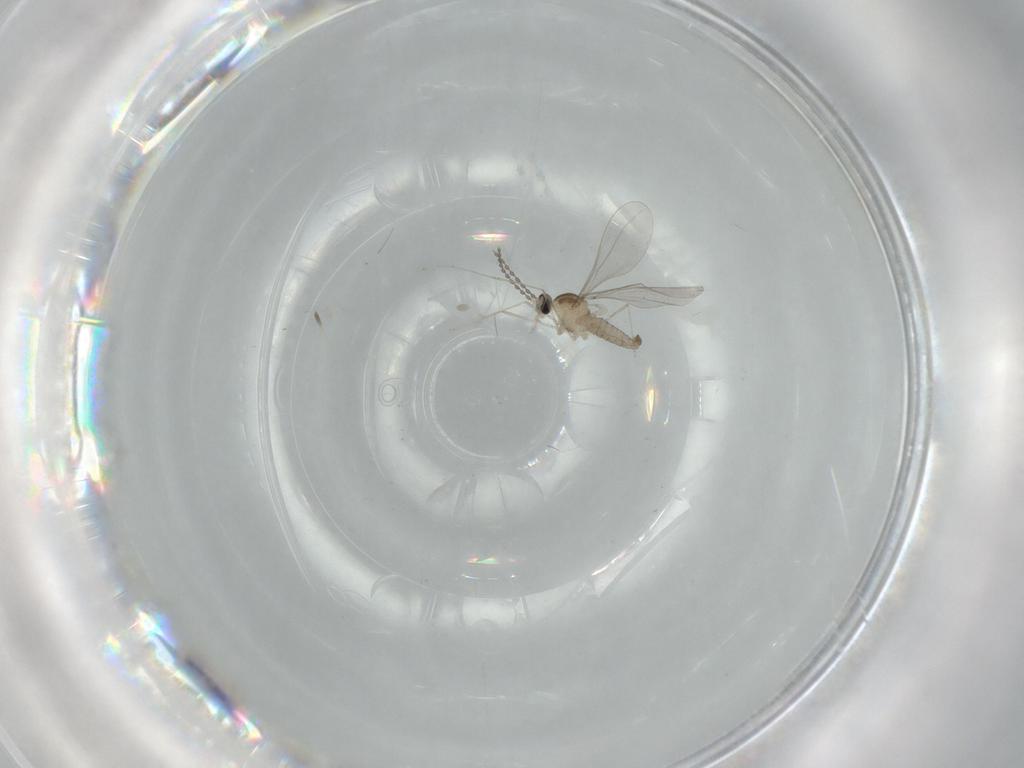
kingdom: Animalia
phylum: Arthropoda
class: Insecta
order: Diptera
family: Cecidomyiidae
